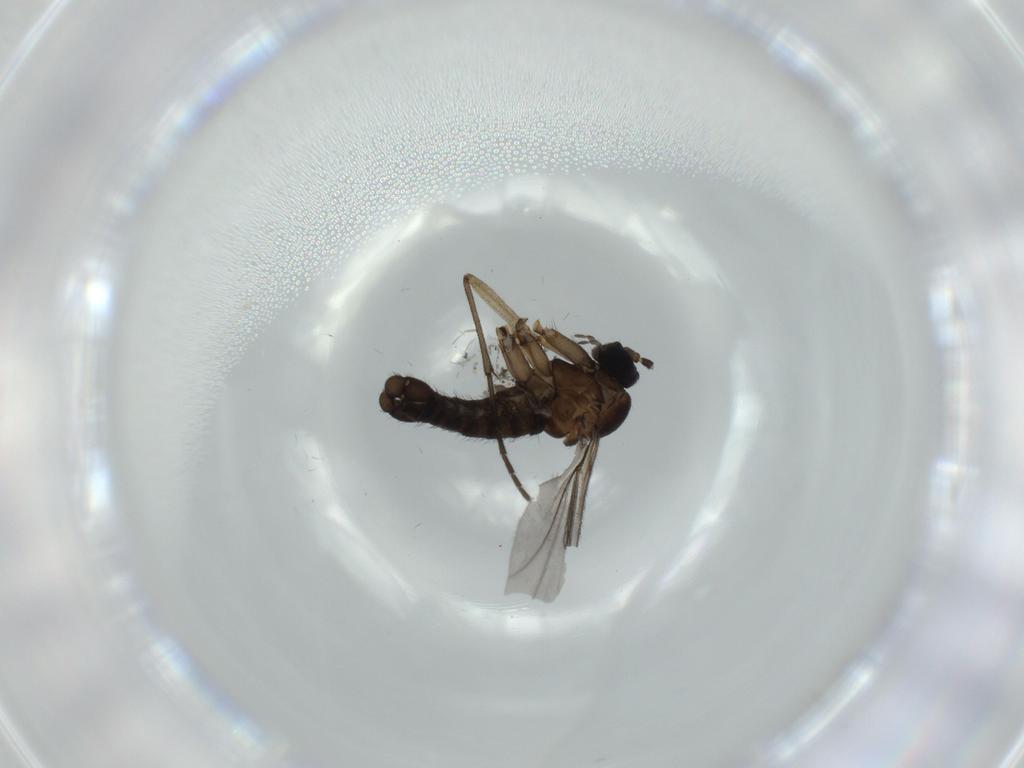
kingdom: Animalia
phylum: Arthropoda
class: Insecta
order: Diptera
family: Sciaridae
